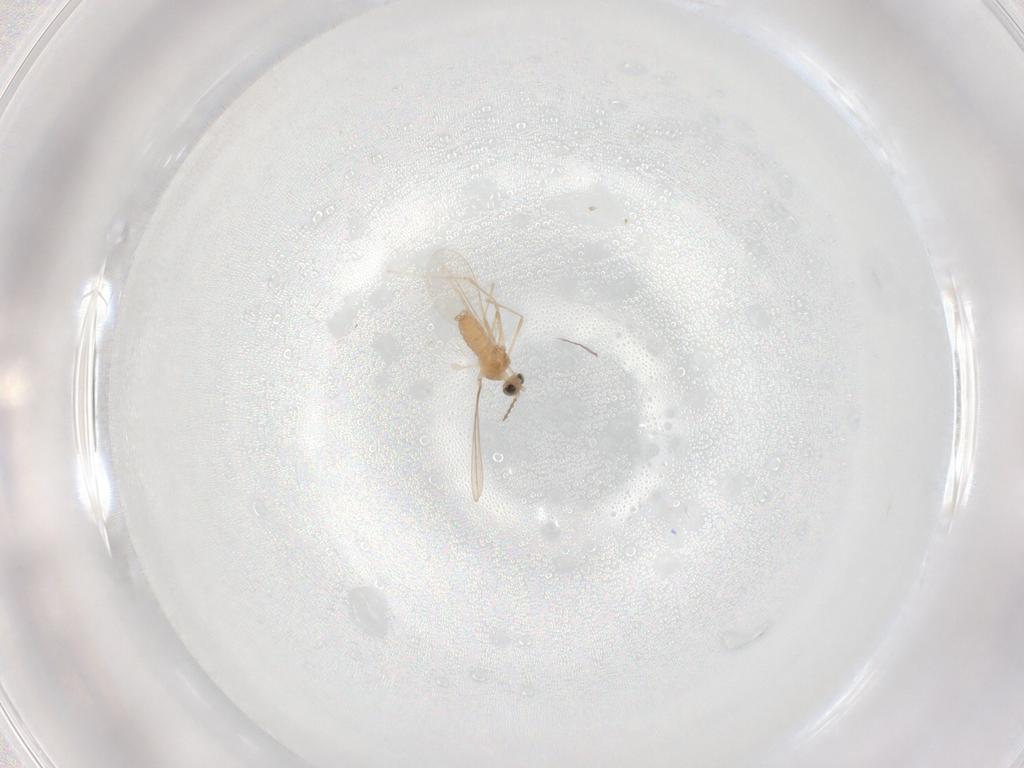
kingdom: Animalia
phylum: Arthropoda
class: Insecta
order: Diptera
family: Cecidomyiidae
